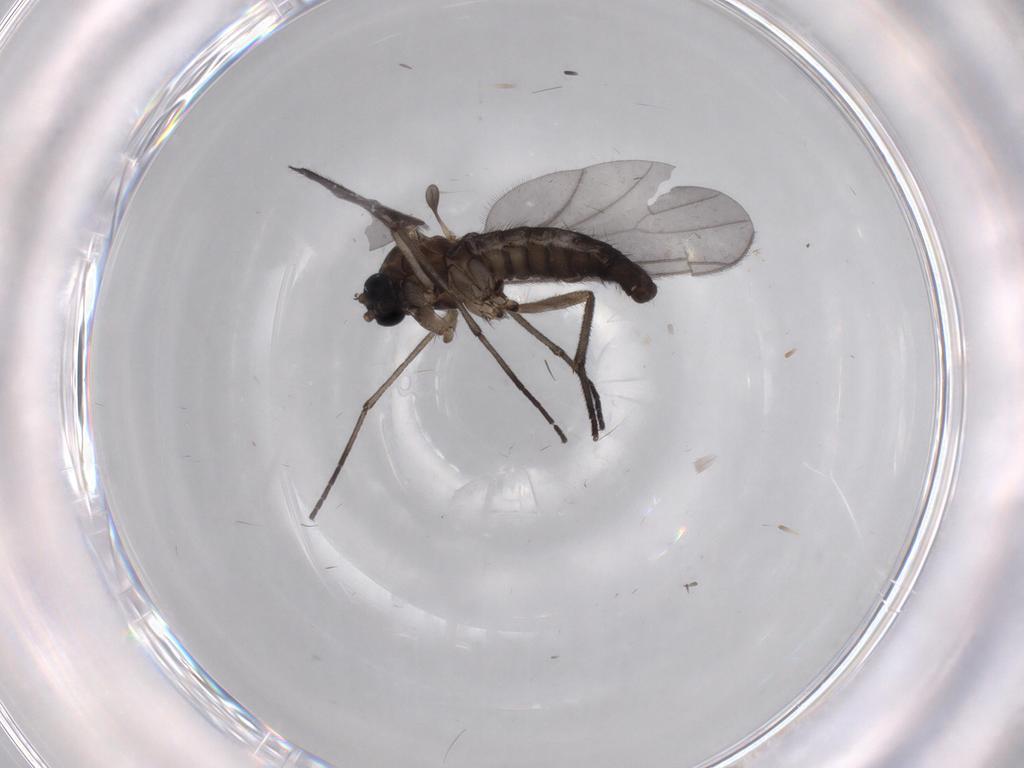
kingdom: Animalia
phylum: Arthropoda
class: Insecta
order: Diptera
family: Sciaridae
